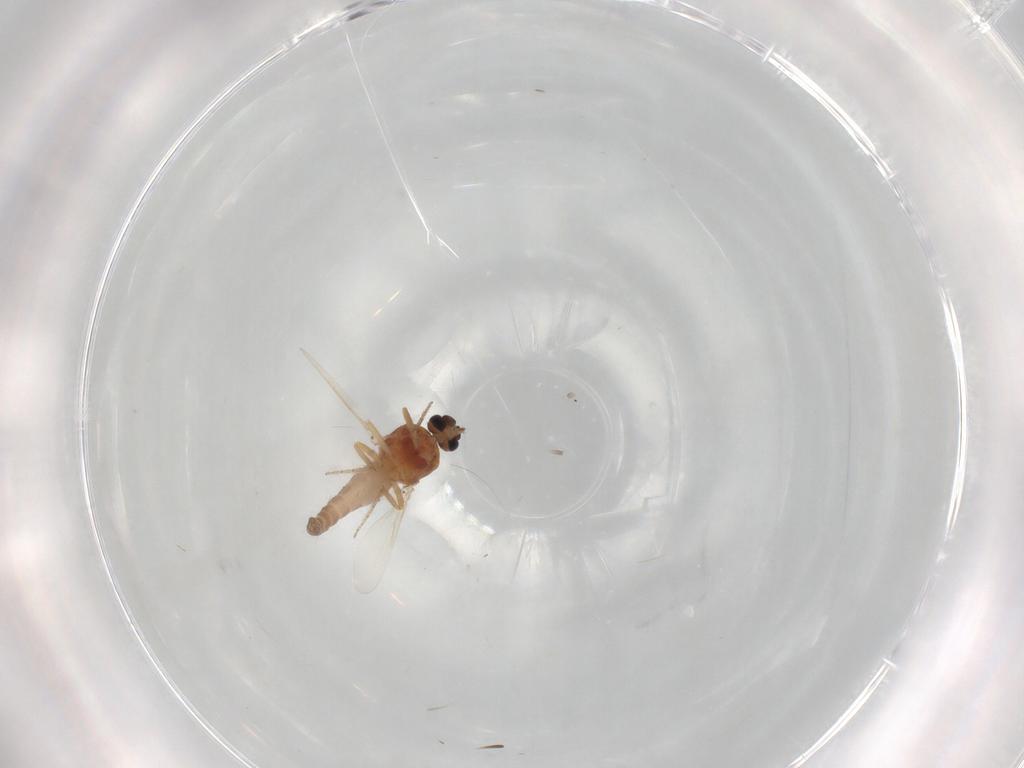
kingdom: Animalia
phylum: Arthropoda
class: Insecta
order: Diptera
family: Ceratopogonidae
